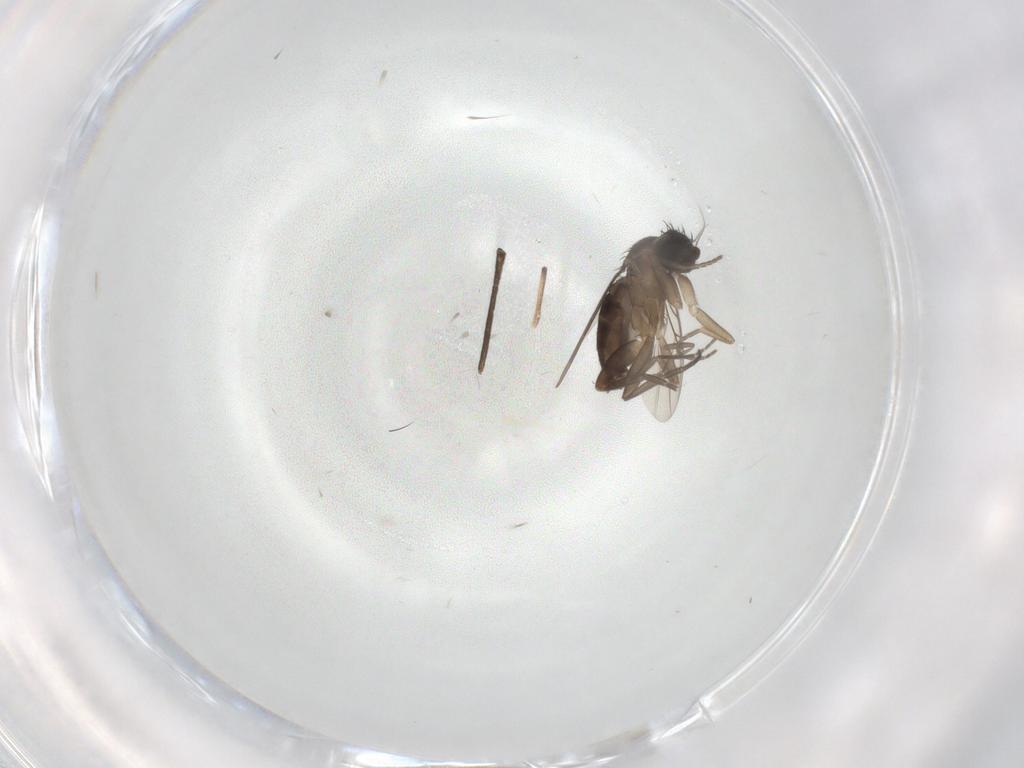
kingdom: Animalia
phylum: Arthropoda
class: Insecta
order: Diptera
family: Phoridae
